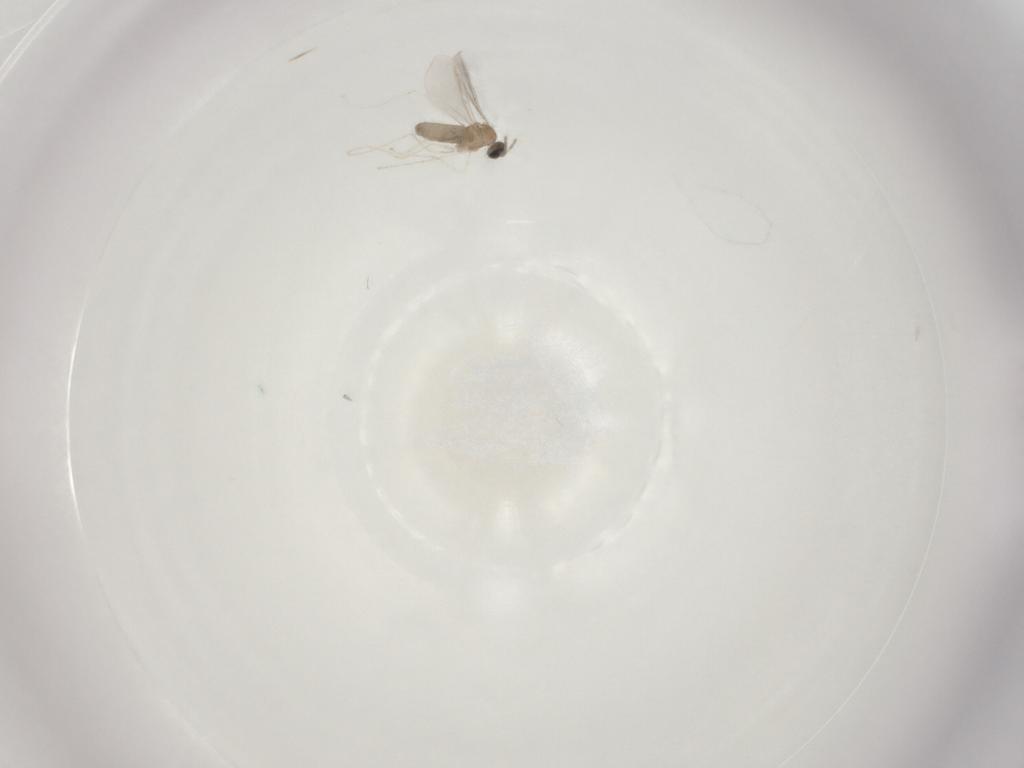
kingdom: Animalia
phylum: Arthropoda
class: Insecta
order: Diptera
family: Cecidomyiidae
